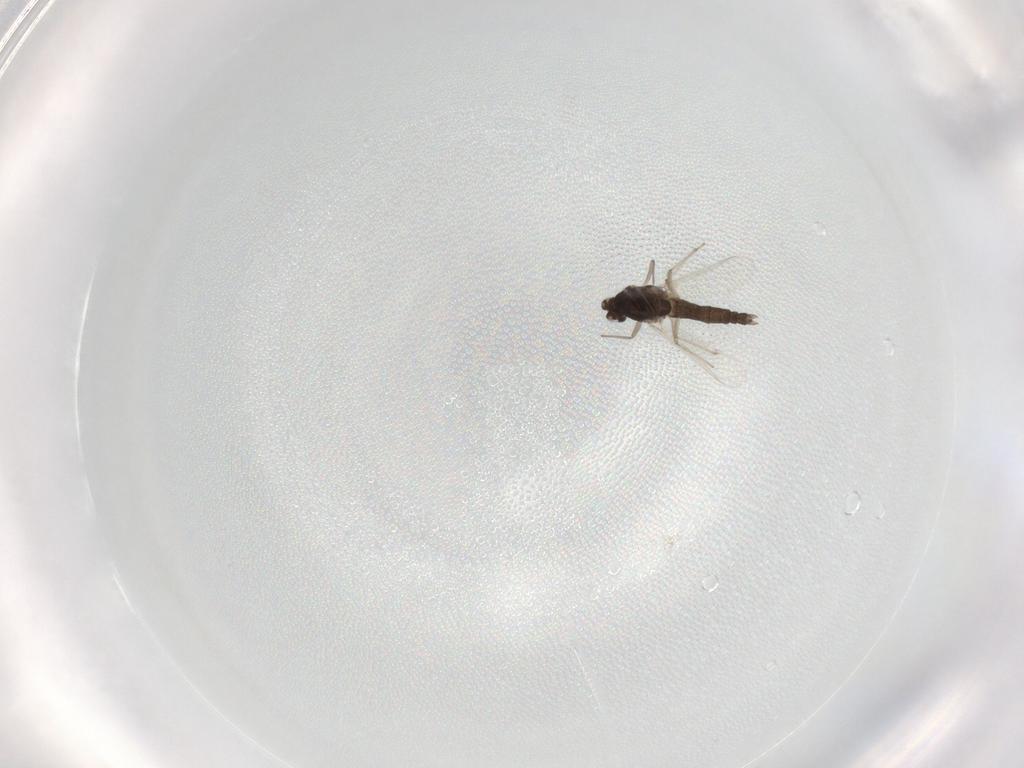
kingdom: Animalia
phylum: Arthropoda
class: Insecta
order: Diptera
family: Chironomidae
